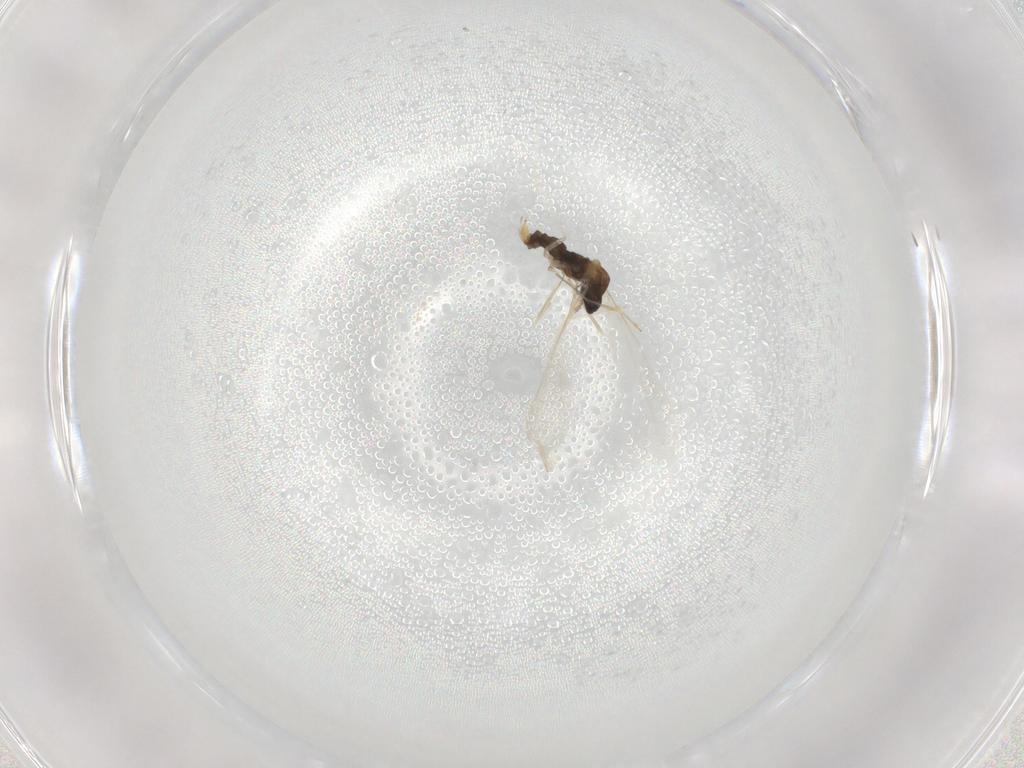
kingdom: Animalia
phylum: Arthropoda
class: Insecta
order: Diptera
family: Cecidomyiidae
